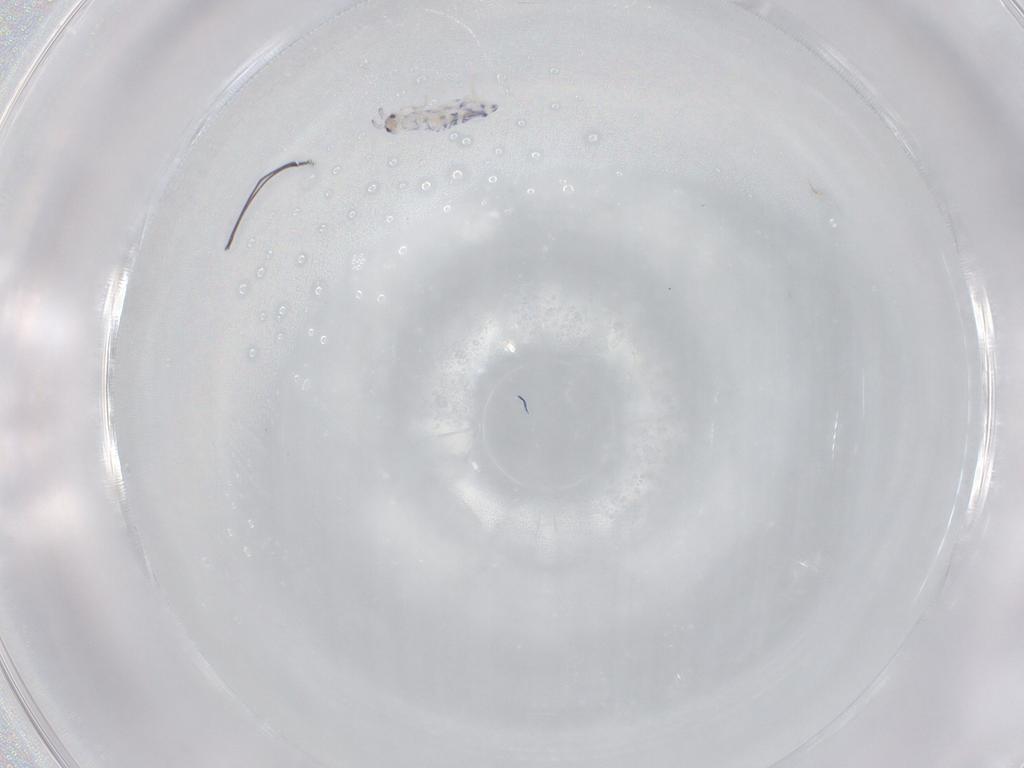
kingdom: Animalia
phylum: Arthropoda
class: Collembola
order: Entomobryomorpha
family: Entomobryidae
